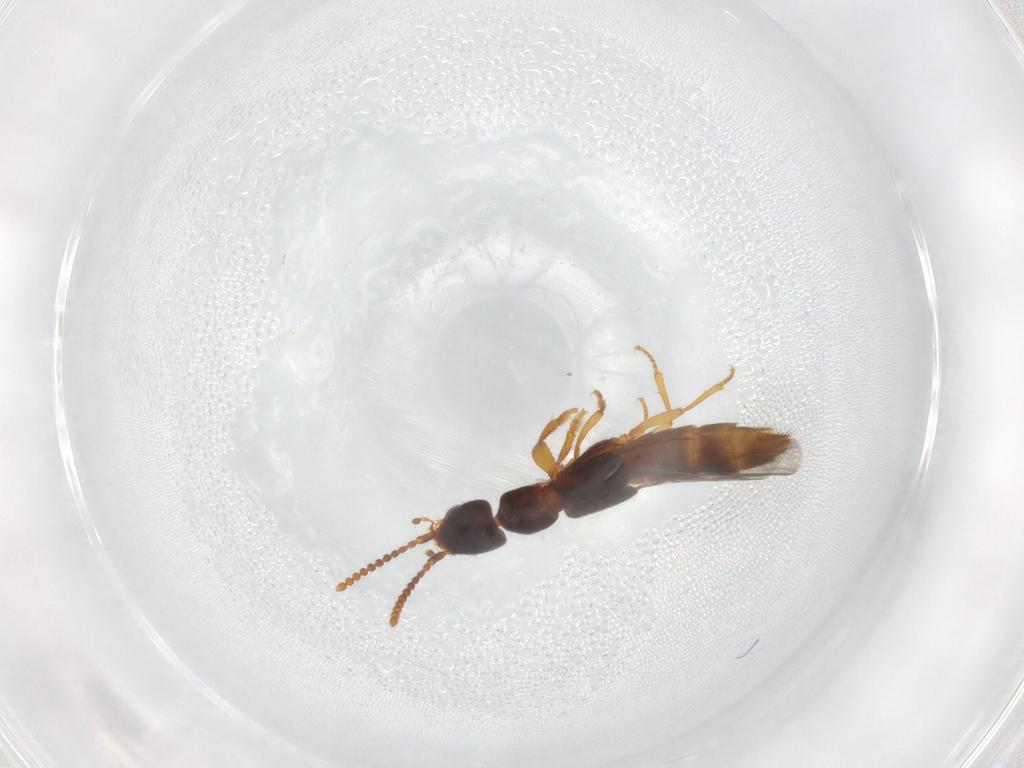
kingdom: Animalia
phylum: Arthropoda
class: Insecta
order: Coleoptera
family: Staphylinidae
